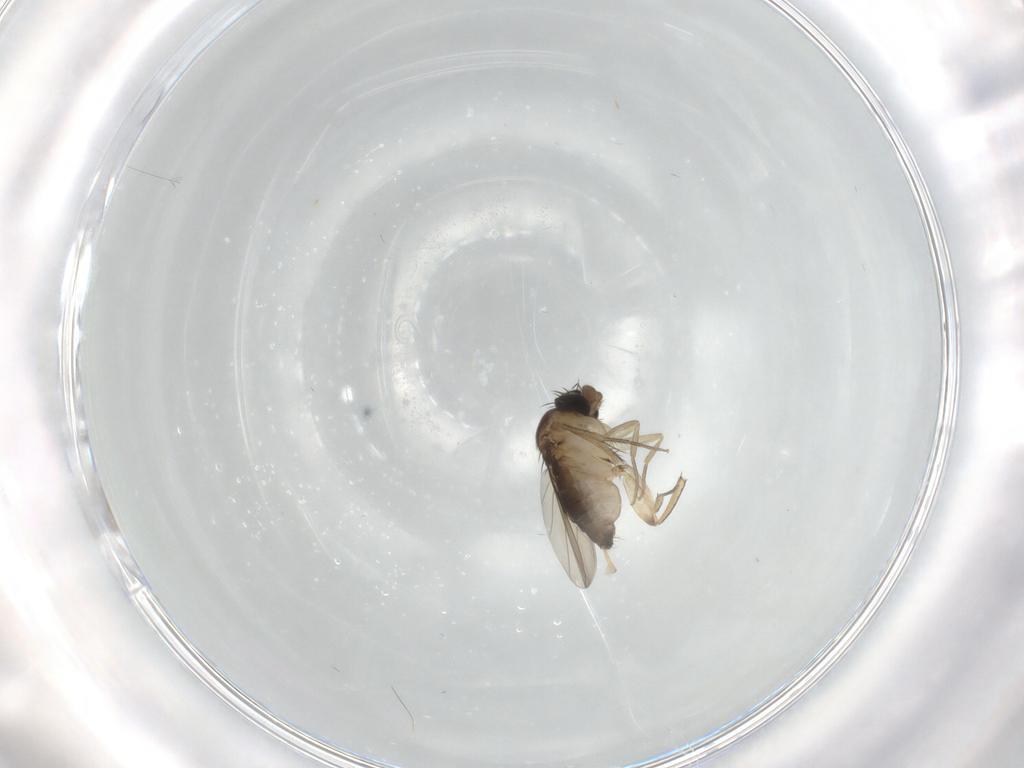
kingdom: Animalia
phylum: Arthropoda
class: Insecta
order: Diptera
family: Phoridae
